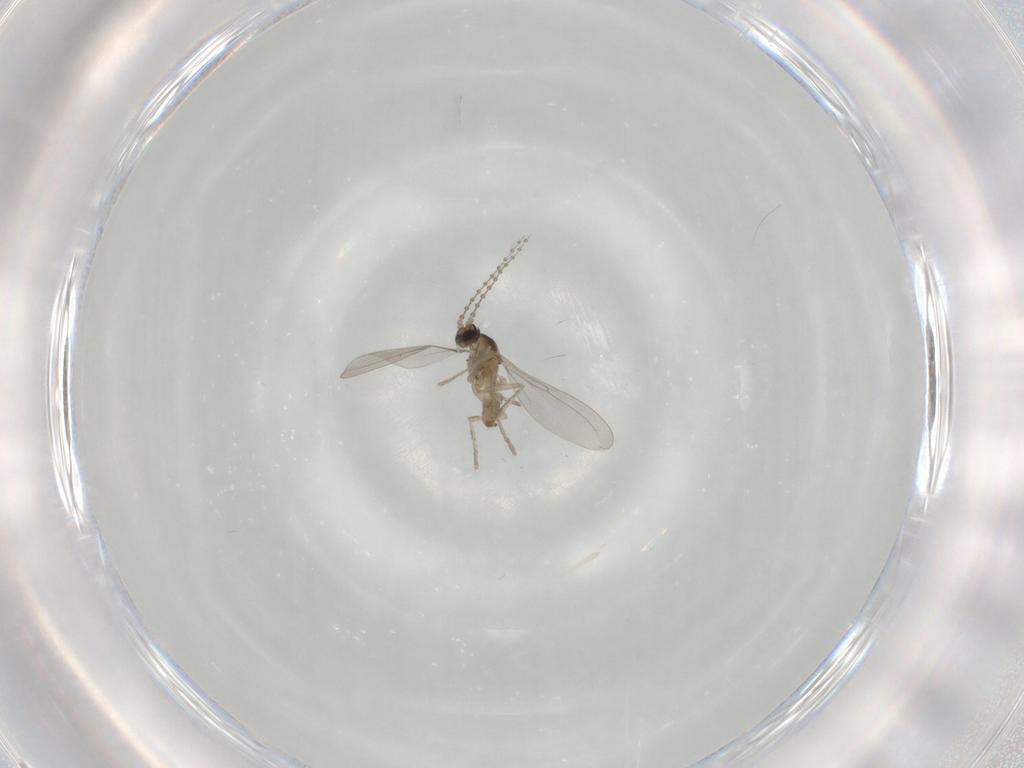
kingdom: Animalia
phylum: Arthropoda
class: Insecta
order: Diptera
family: Cecidomyiidae
